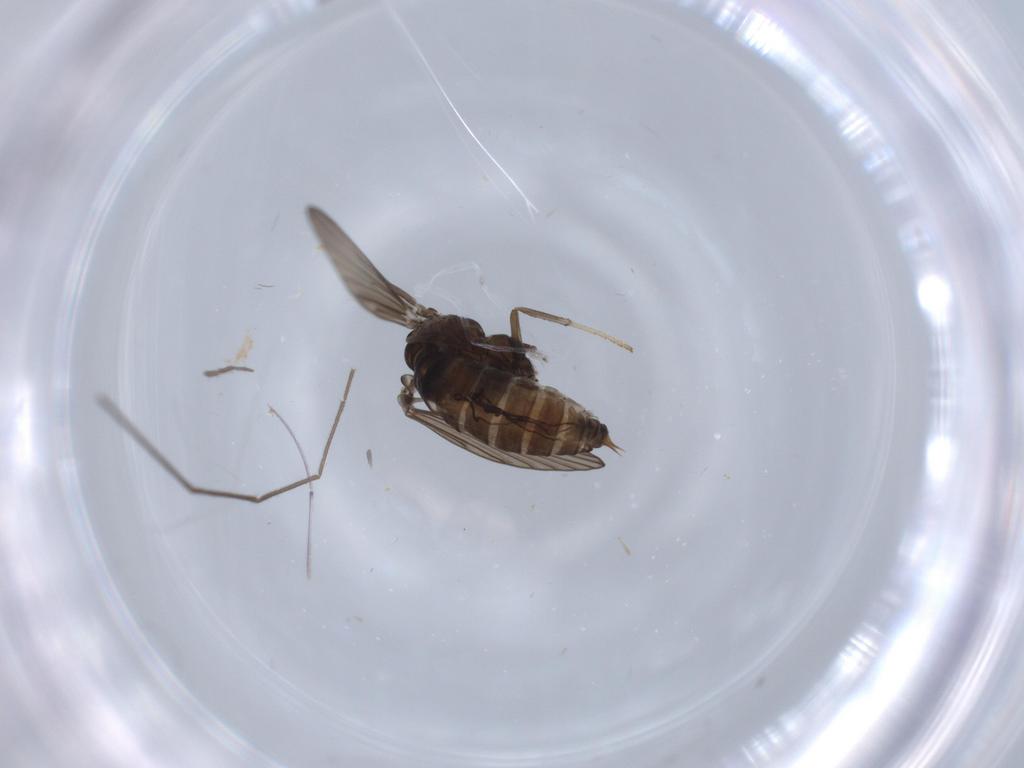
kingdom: Animalia
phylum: Arthropoda
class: Insecta
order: Diptera
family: Psychodidae
